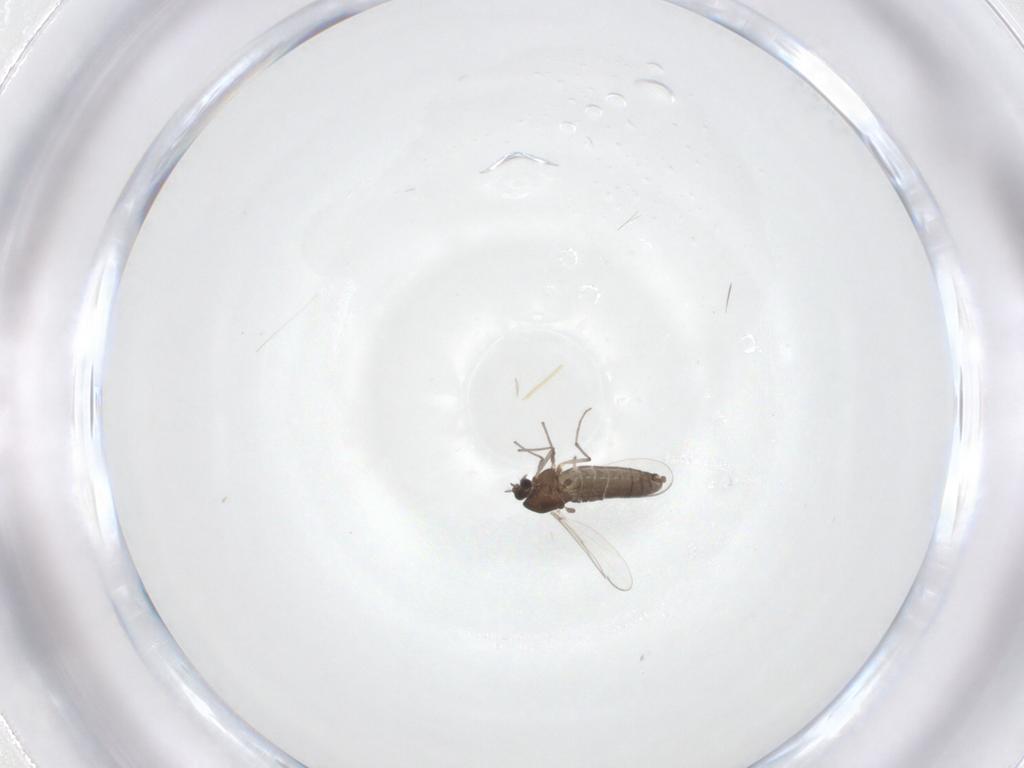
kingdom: Animalia
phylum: Arthropoda
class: Insecta
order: Diptera
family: Chironomidae
